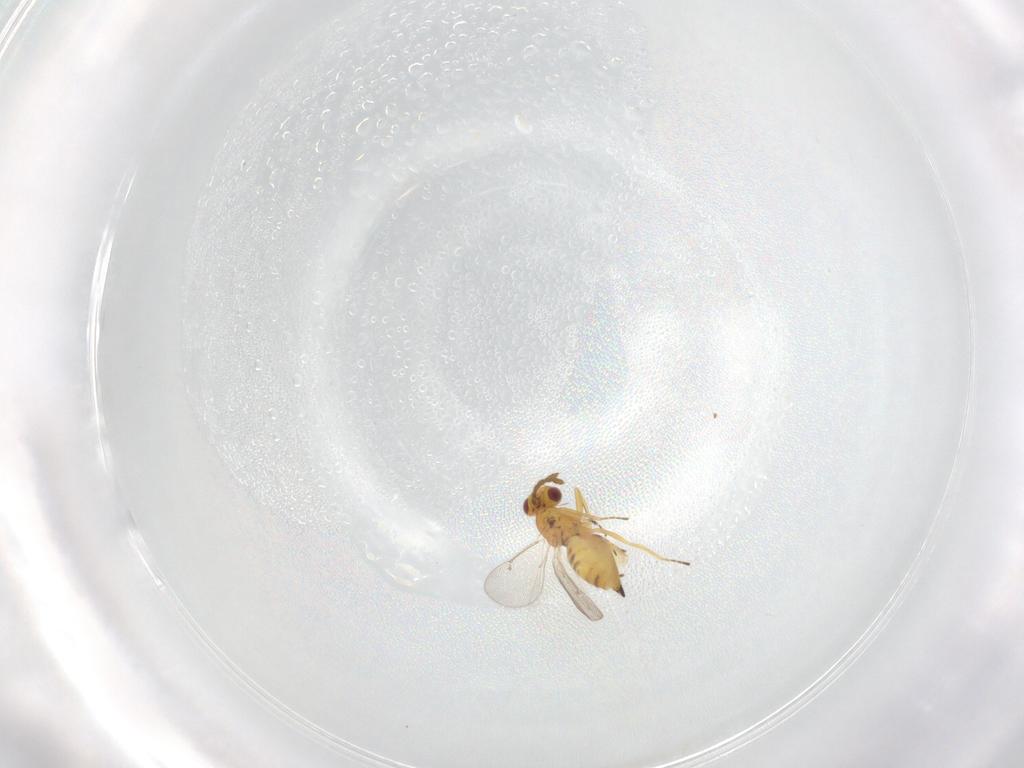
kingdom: Animalia
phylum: Arthropoda
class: Insecta
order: Hymenoptera
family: Eulophidae
